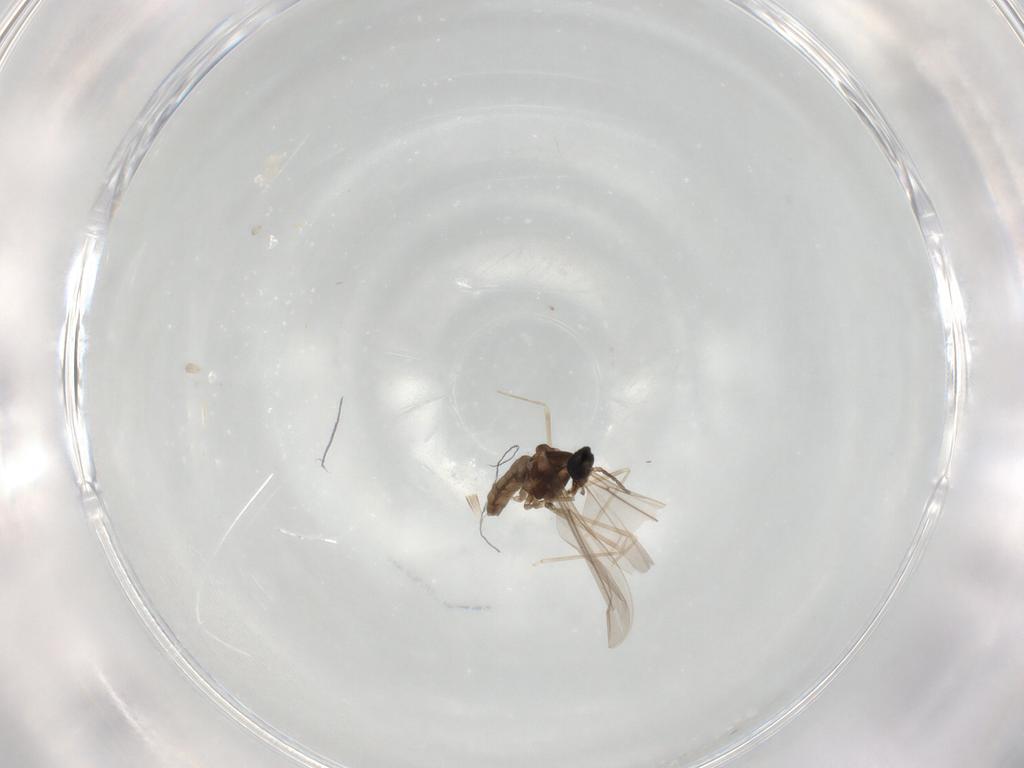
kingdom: Animalia
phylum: Arthropoda
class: Insecta
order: Diptera
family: Cecidomyiidae
